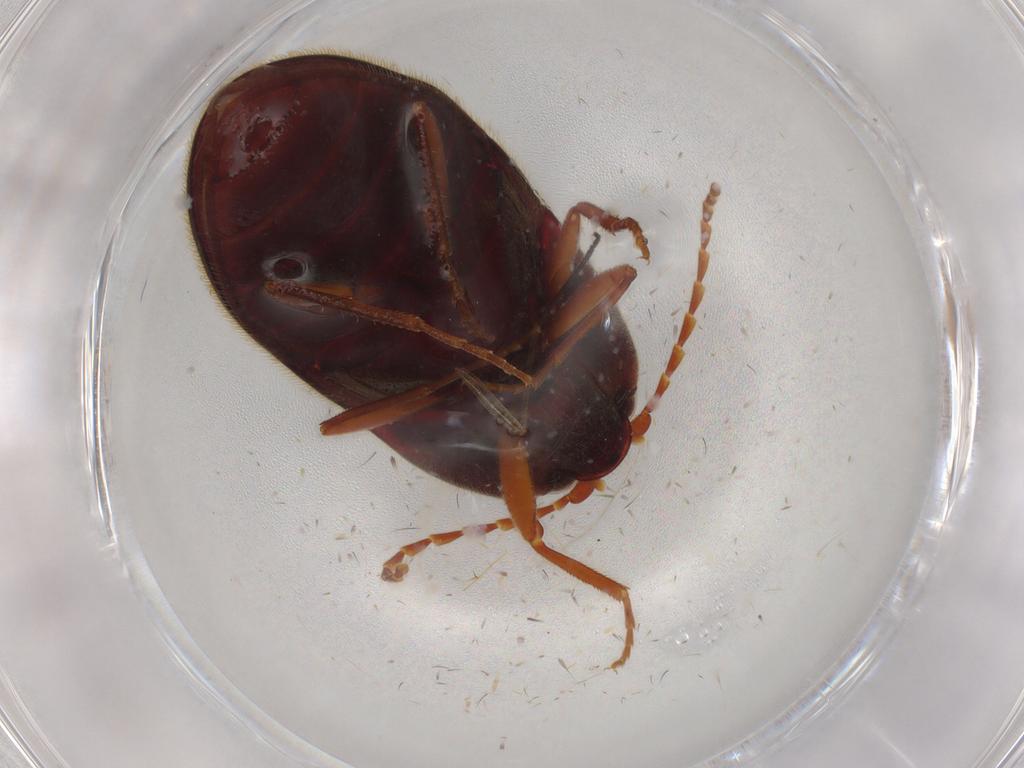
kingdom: Animalia
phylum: Arthropoda
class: Insecta
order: Coleoptera
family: Elateridae
